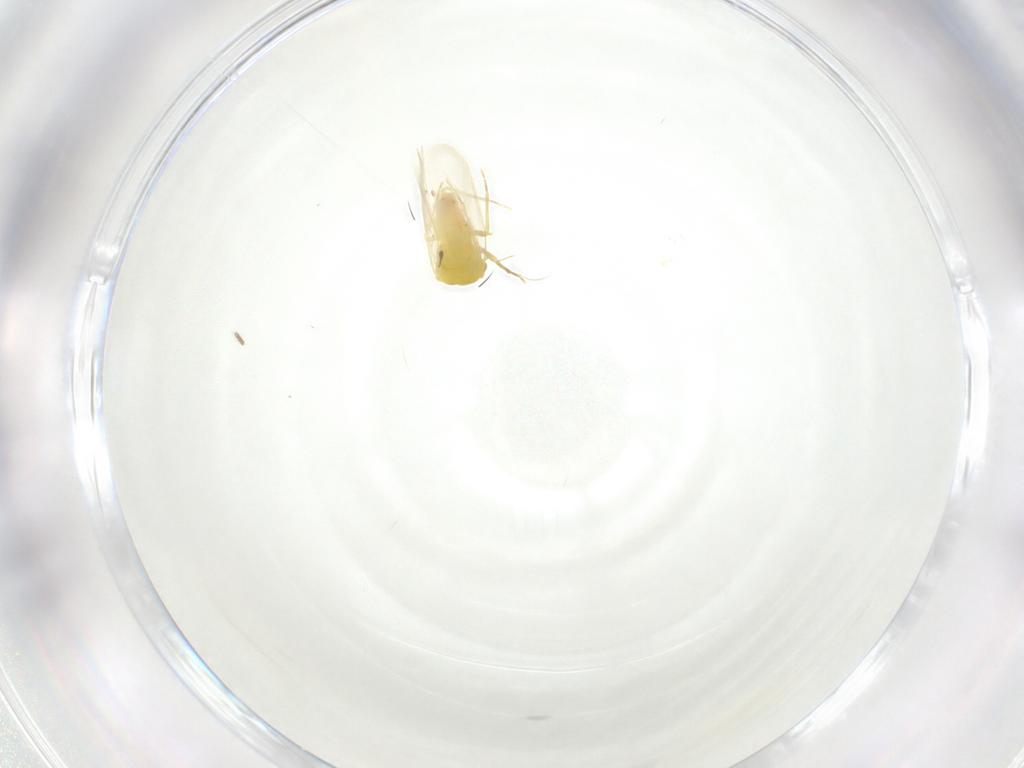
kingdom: Animalia
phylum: Arthropoda
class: Insecta
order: Hemiptera
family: Aleyrodidae
